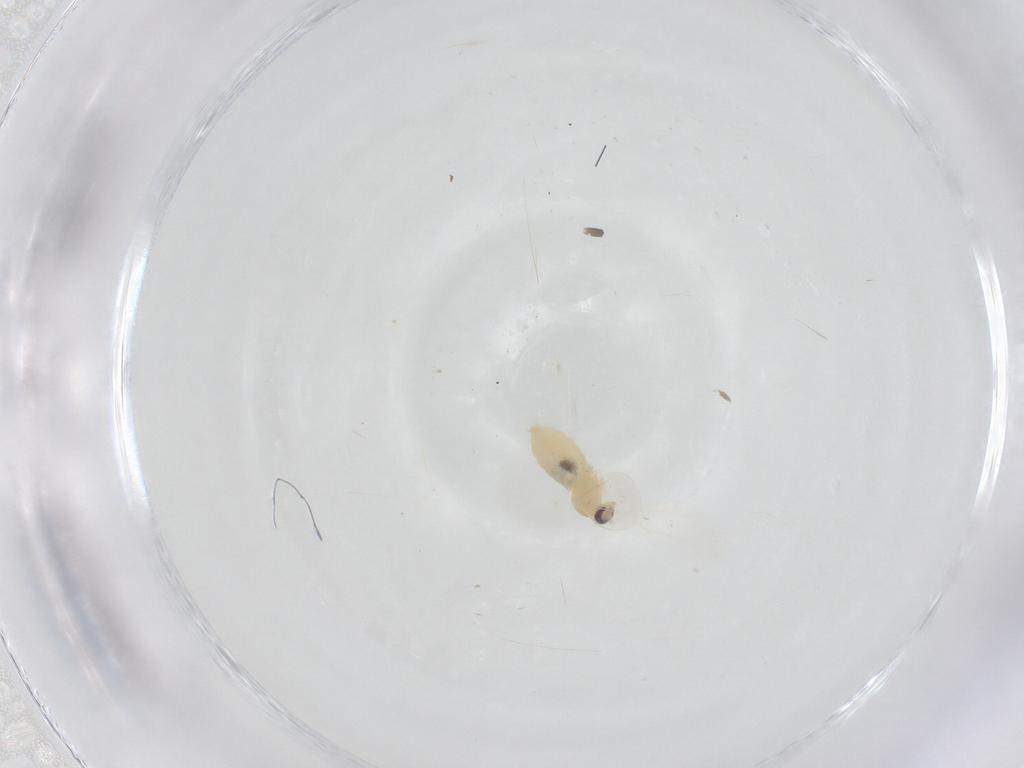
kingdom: Animalia
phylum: Arthropoda
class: Insecta
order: Diptera
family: Cecidomyiidae
